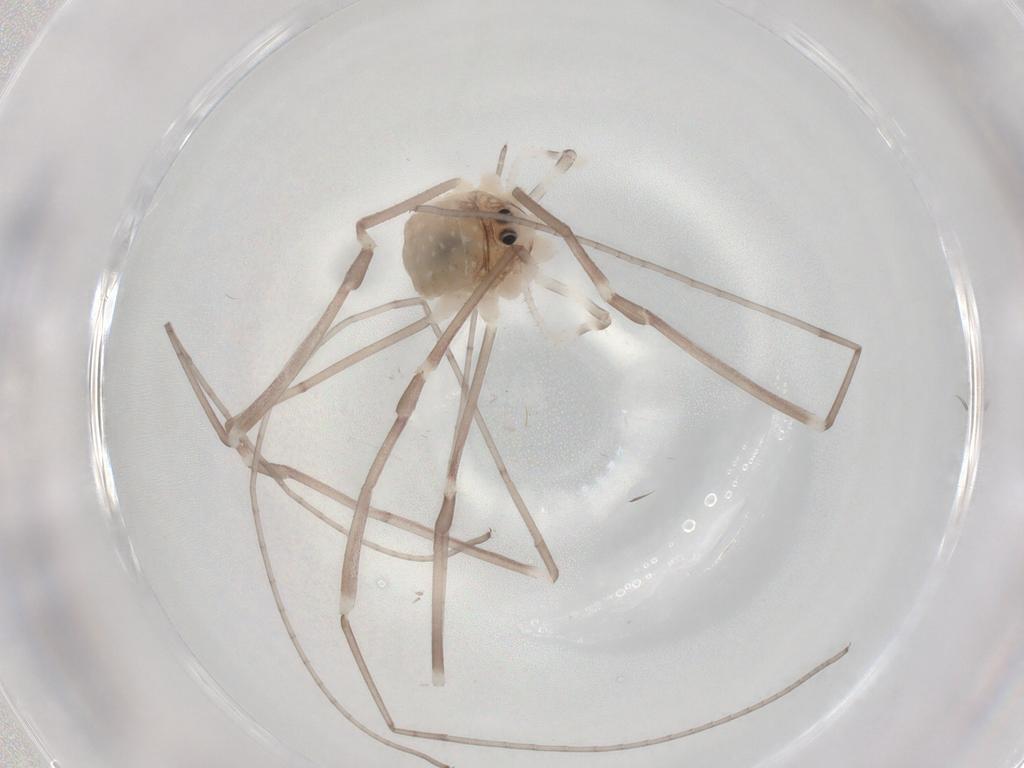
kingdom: Animalia
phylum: Arthropoda
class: Arachnida
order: Opiliones
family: Sclerosomatidae
